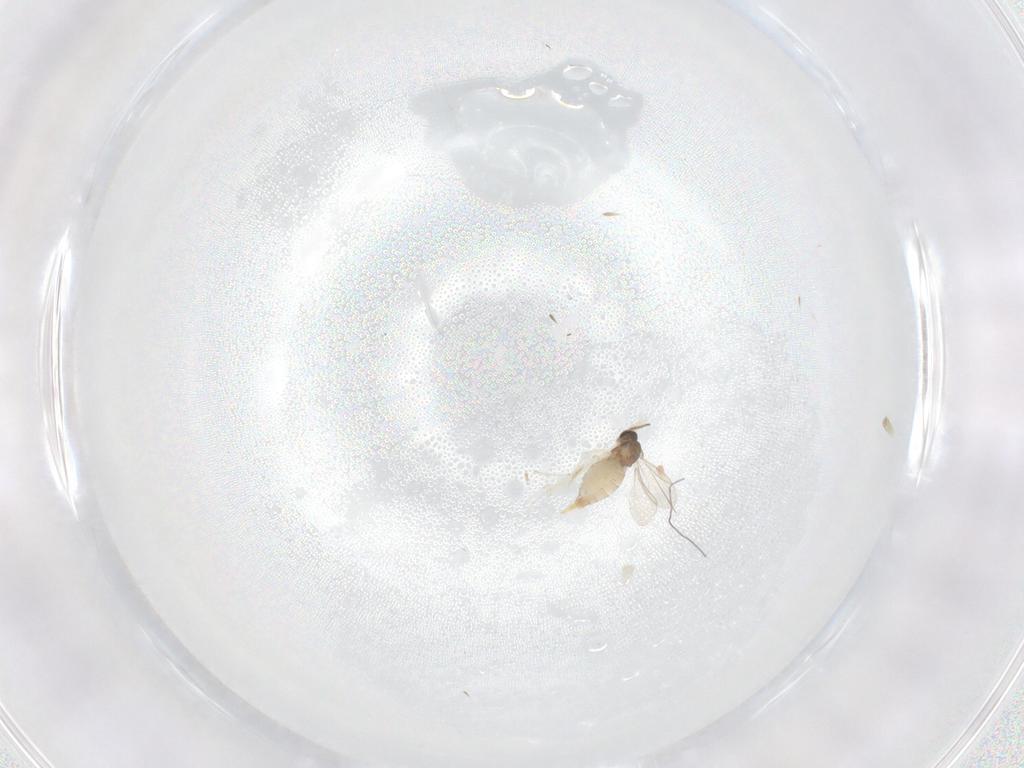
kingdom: Animalia
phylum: Arthropoda
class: Insecta
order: Diptera
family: Cecidomyiidae
